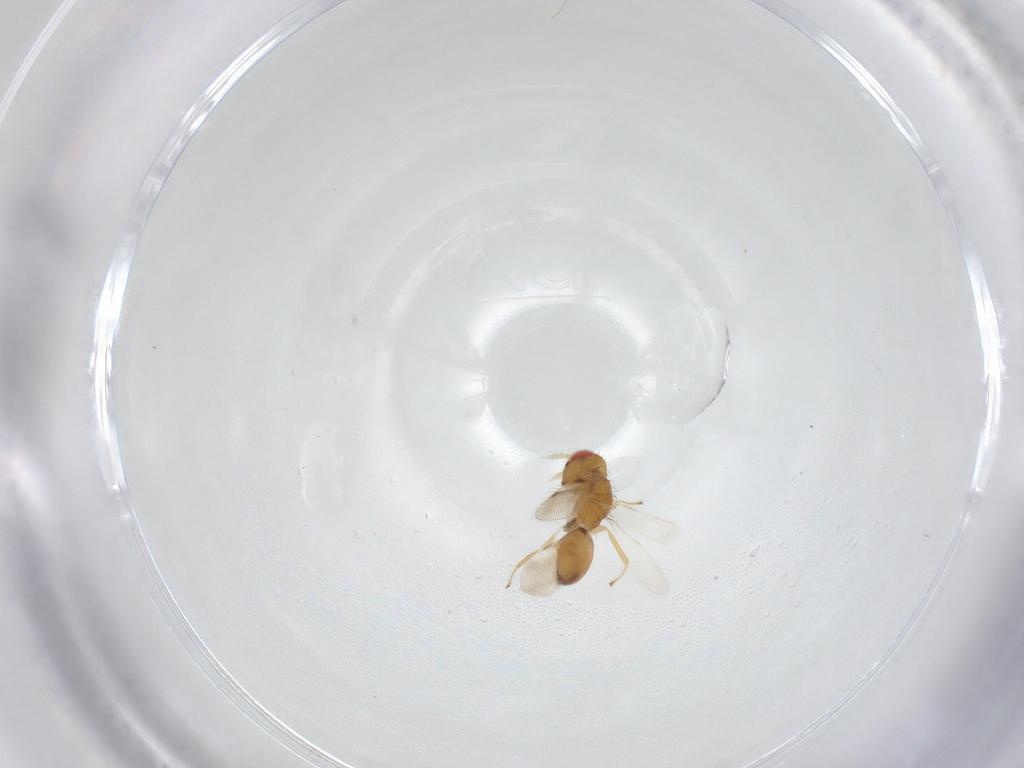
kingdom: Animalia
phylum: Arthropoda
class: Insecta
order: Hymenoptera
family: Eulophidae
